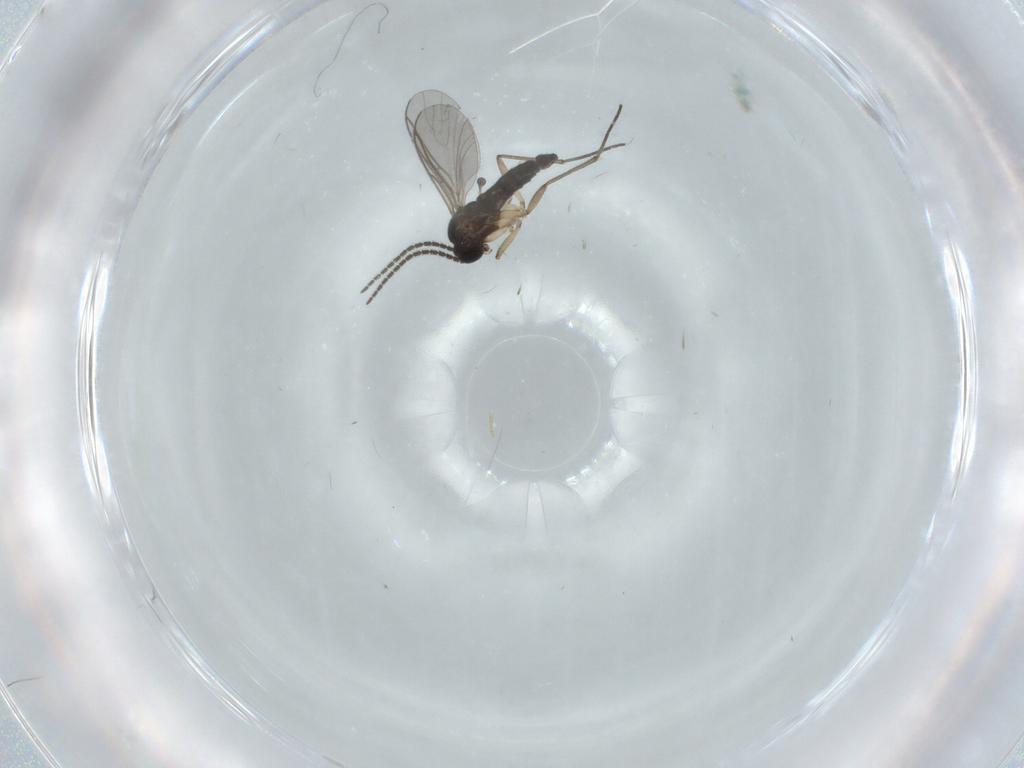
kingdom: Animalia
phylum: Arthropoda
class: Insecta
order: Diptera
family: Sciaridae
